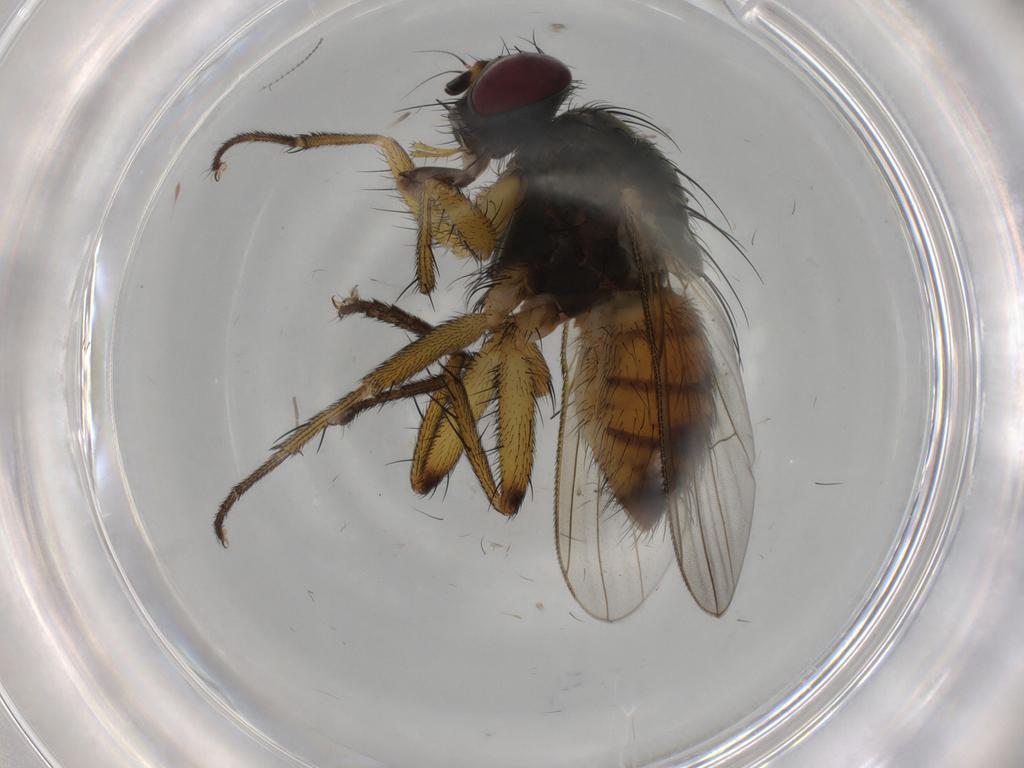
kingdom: Animalia
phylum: Arthropoda
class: Insecta
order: Diptera
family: Muscidae
